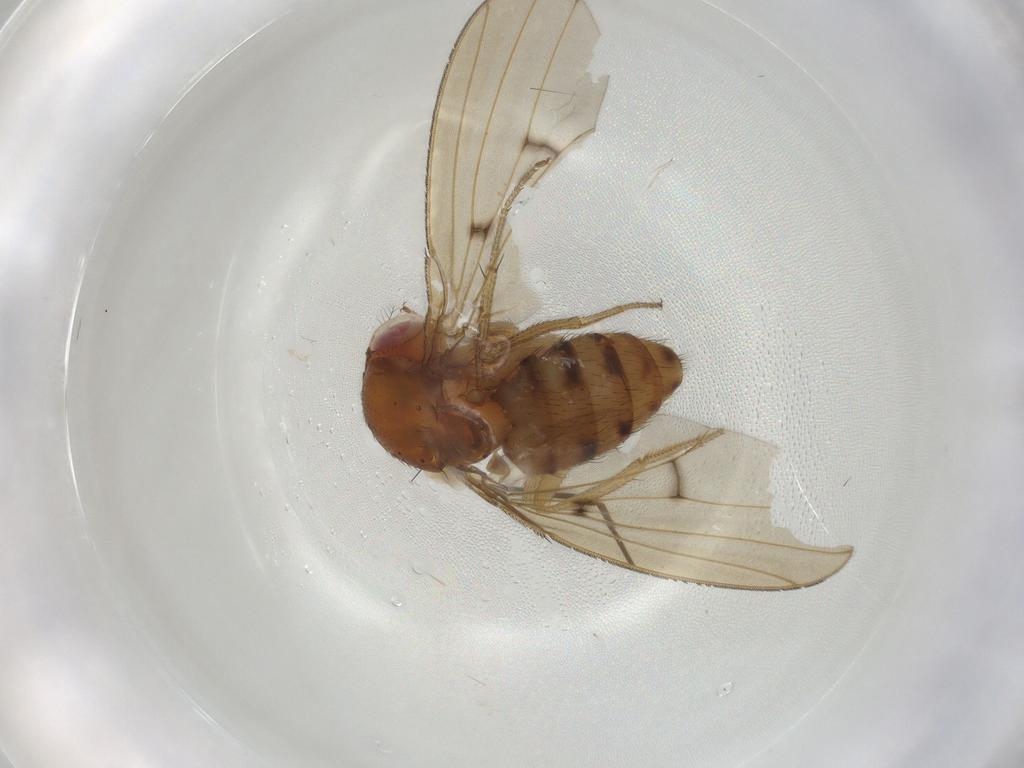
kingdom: Animalia
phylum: Arthropoda
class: Insecta
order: Diptera
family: Drosophilidae
